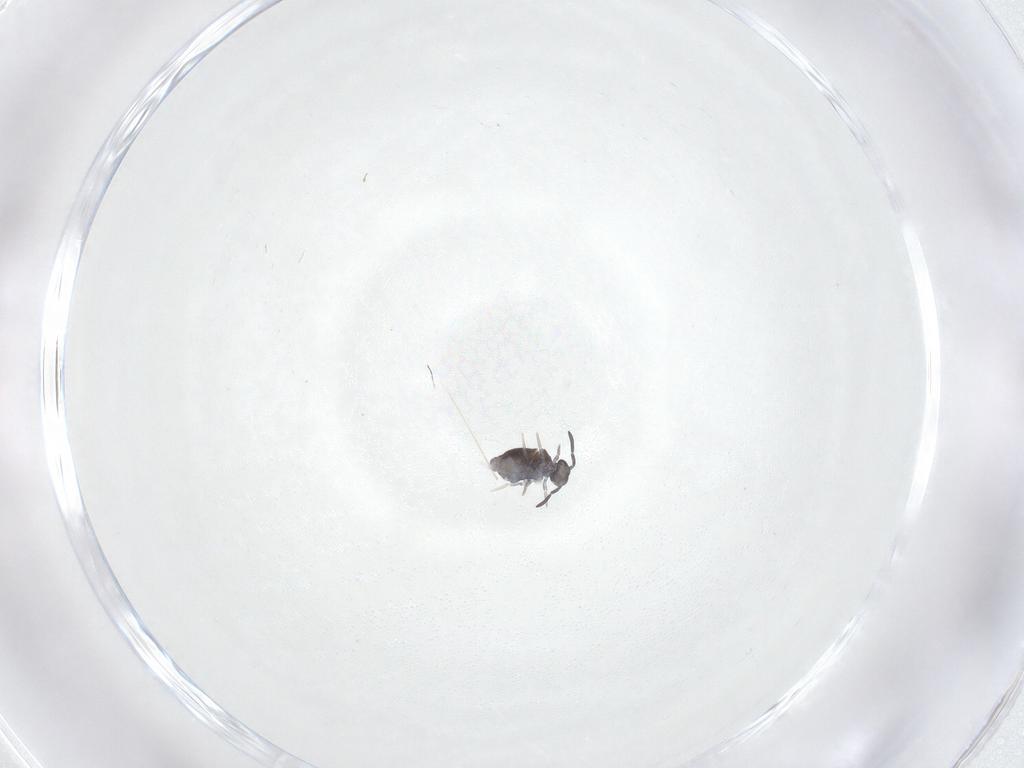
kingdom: Animalia
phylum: Arthropoda
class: Collembola
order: Symphypleona
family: Katiannidae
